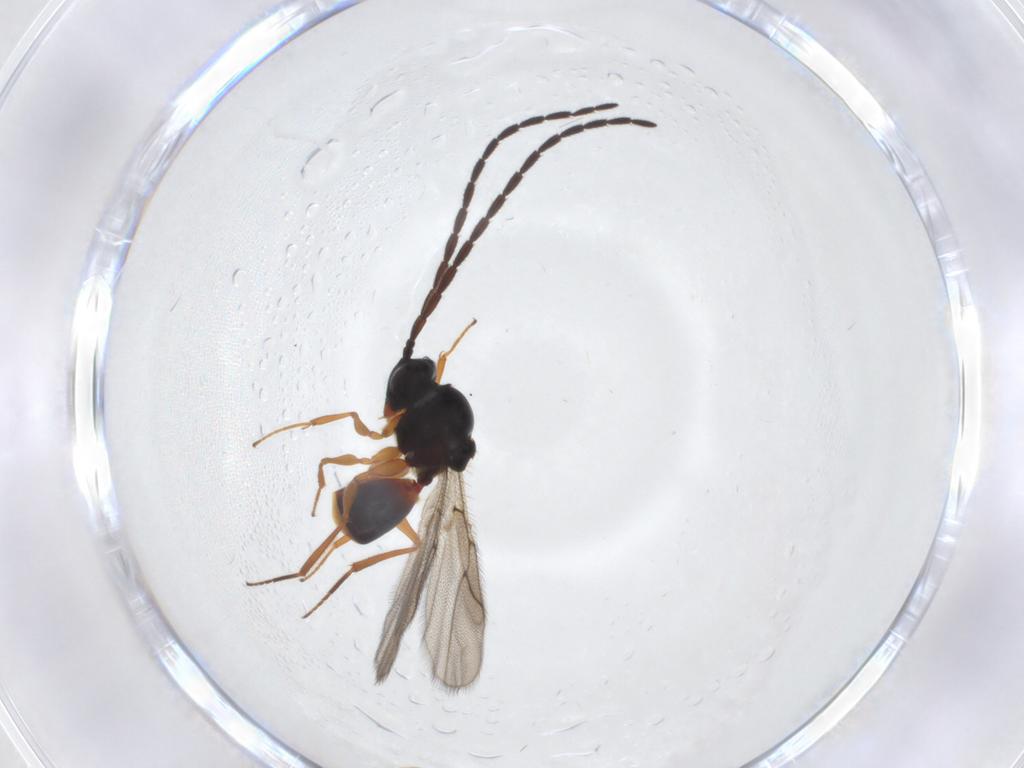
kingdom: Animalia
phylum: Arthropoda
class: Insecta
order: Hymenoptera
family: Figitidae
